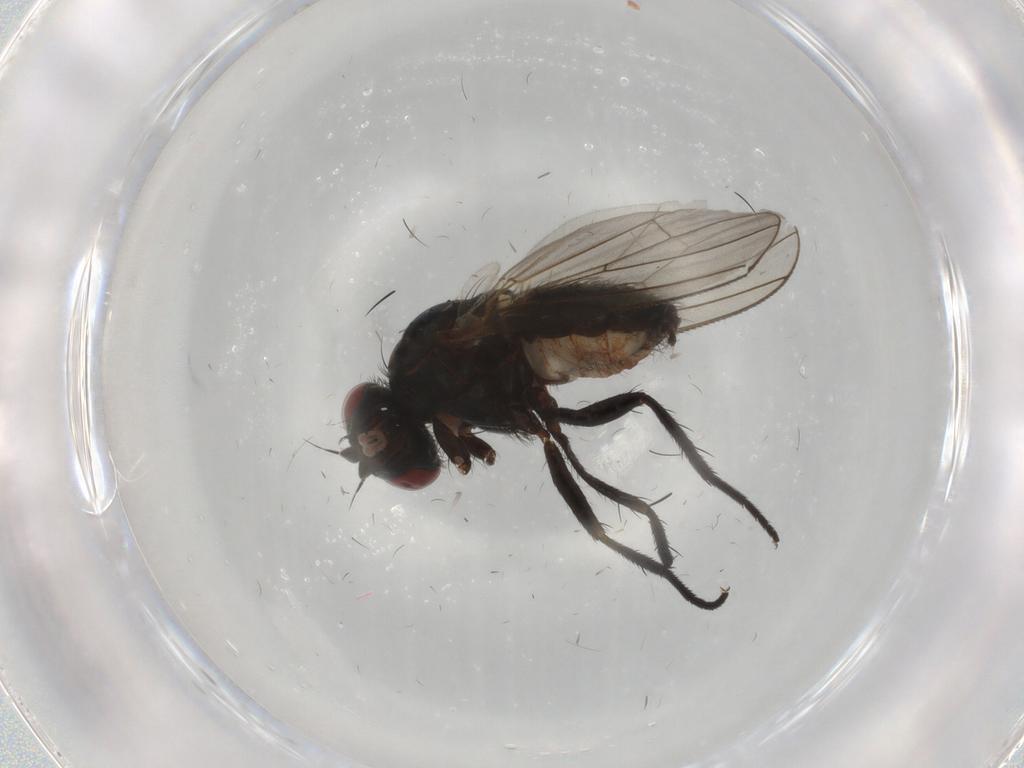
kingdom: Animalia
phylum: Arthropoda
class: Insecta
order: Diptera
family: Anthomyiidae
